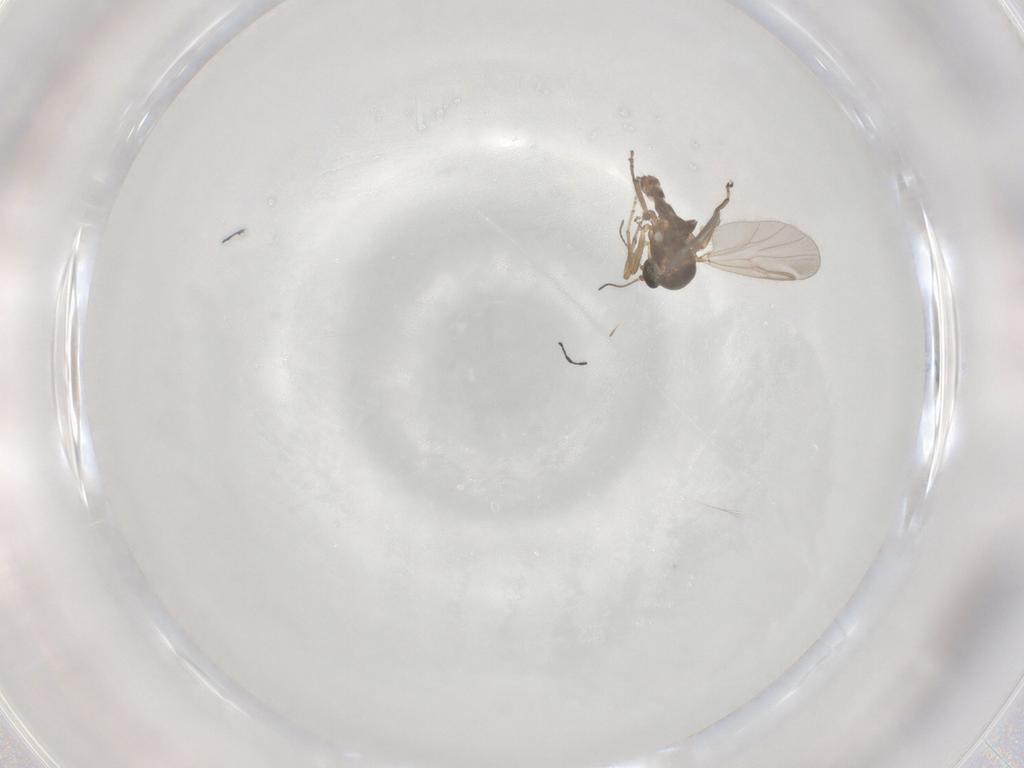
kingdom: Animalia
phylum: Arthropoda
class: Insecta
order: Diptera
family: Ceratopogonidae
